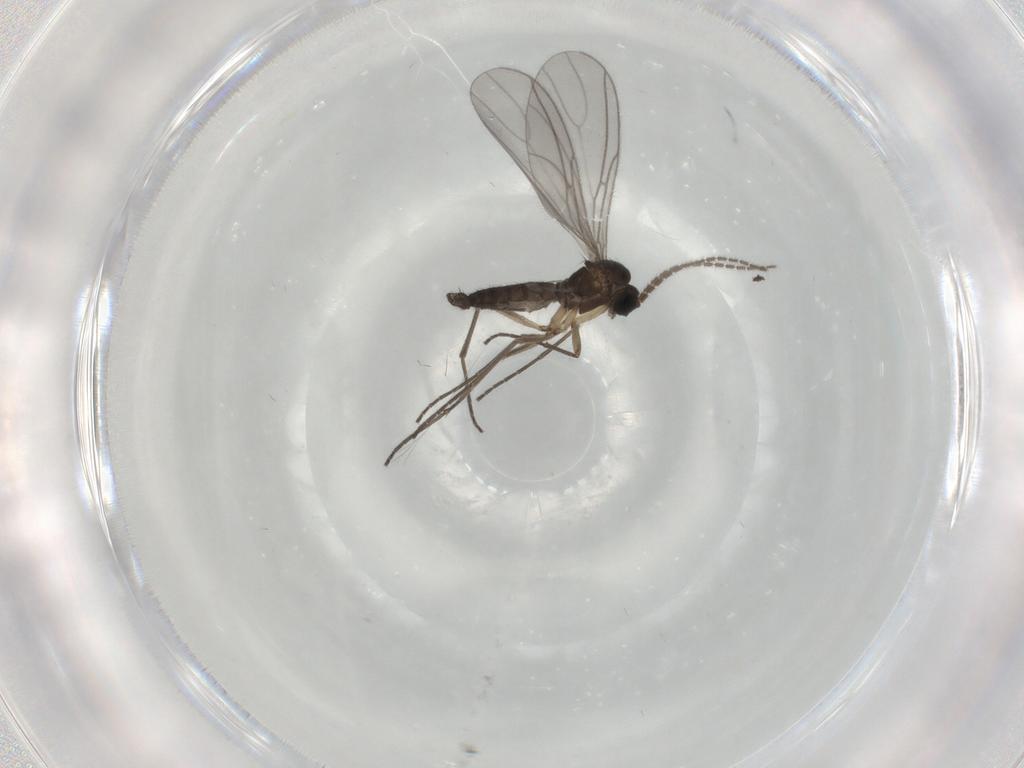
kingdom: Animalia
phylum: Arthropoda
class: Insecta
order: Diptera
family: Sciaridae
